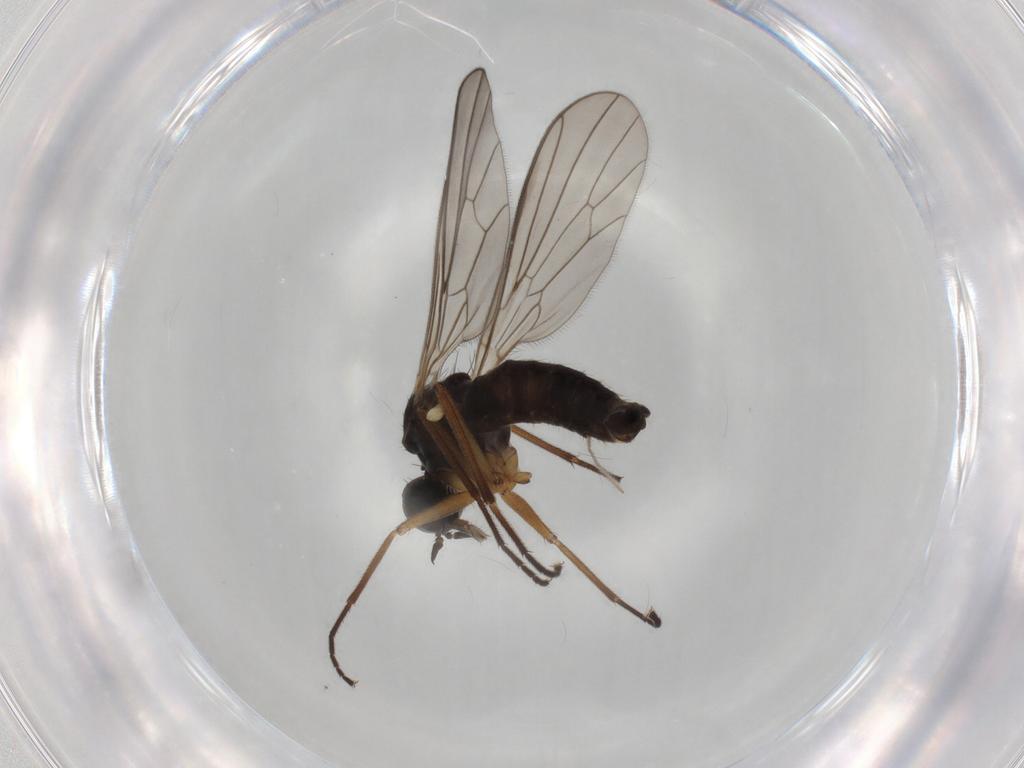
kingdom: Animalia
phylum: Arthropoda
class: Insecta
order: Diptera
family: Empididae
